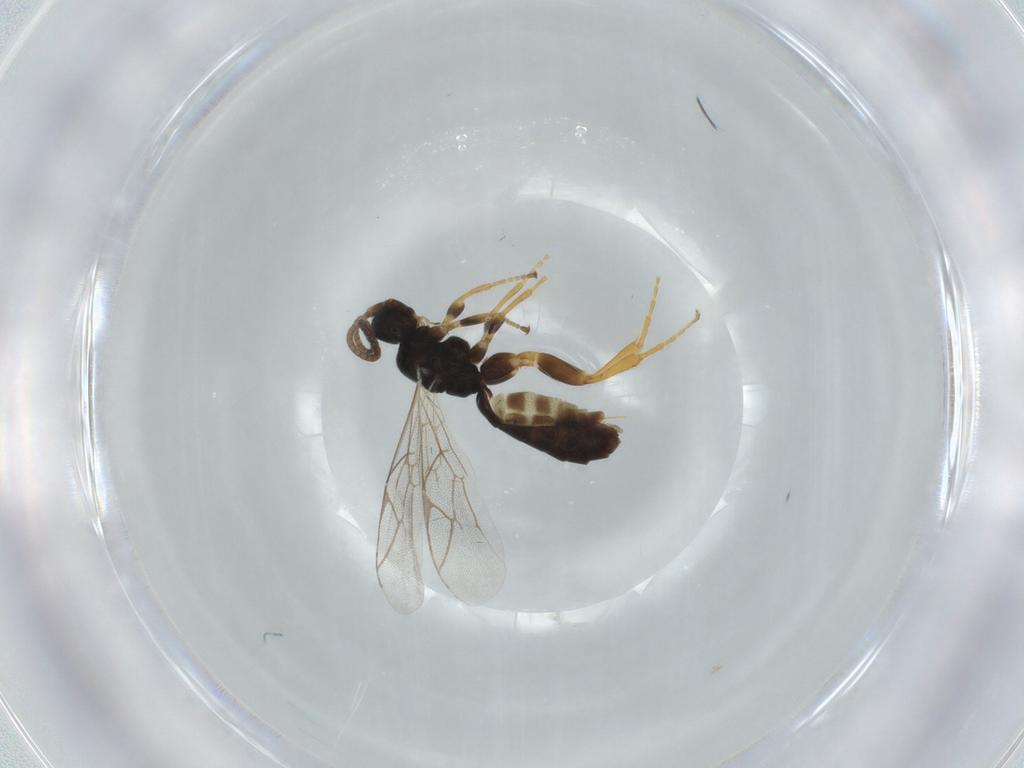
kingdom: Animalia
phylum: Arthropoda
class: Insecta
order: Hymenoptera
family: Ichneumonidae
